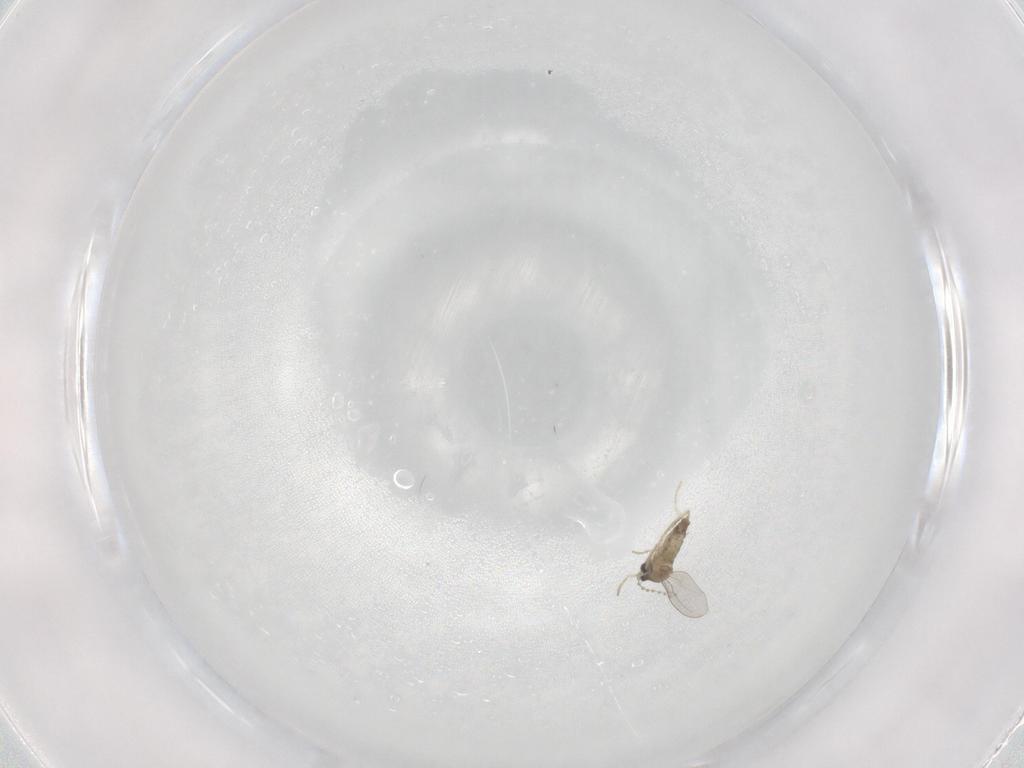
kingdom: Animalia
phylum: Arthropoda
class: Insecta
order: Diptera
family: Cecidomyiidae
